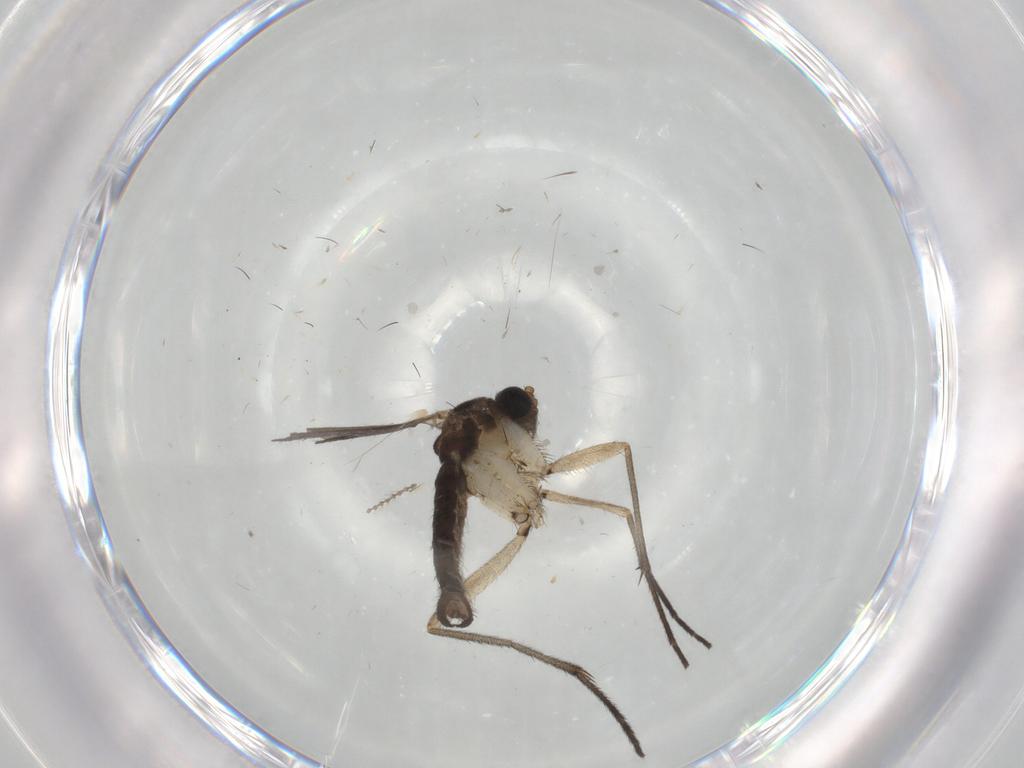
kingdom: Animalia
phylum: Arthropoda
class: Insecta
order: Diptera
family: Sciaridae
